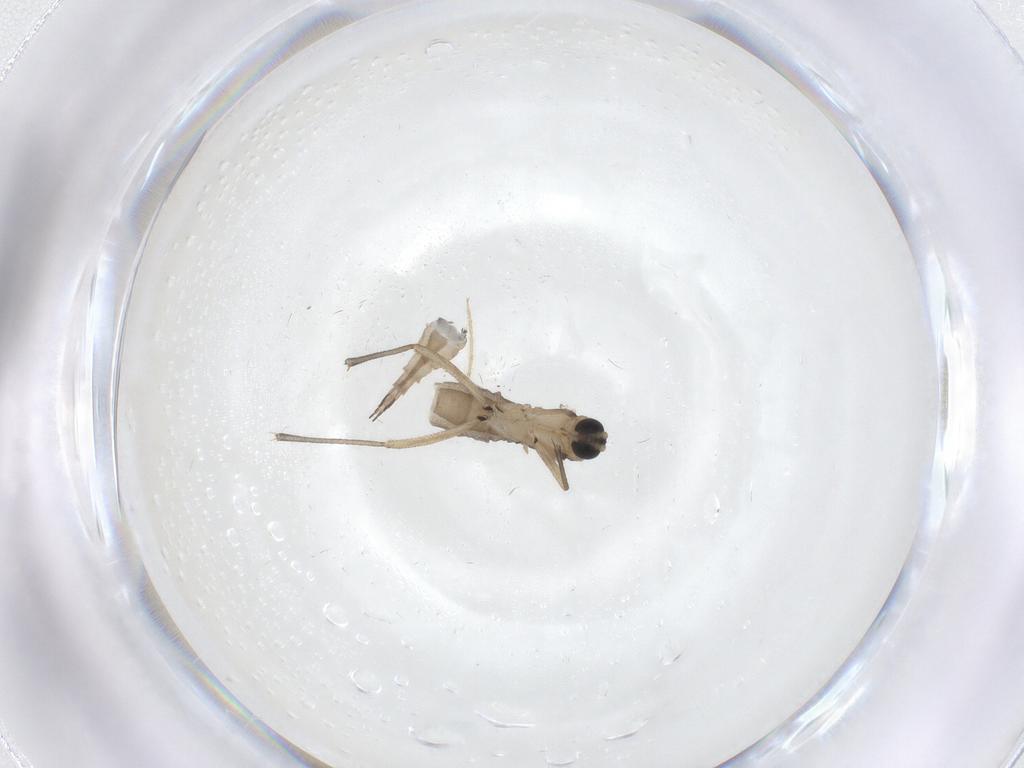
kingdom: Animalia
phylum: Arthropoda
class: Insecta
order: Diptera
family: Sciaridae
